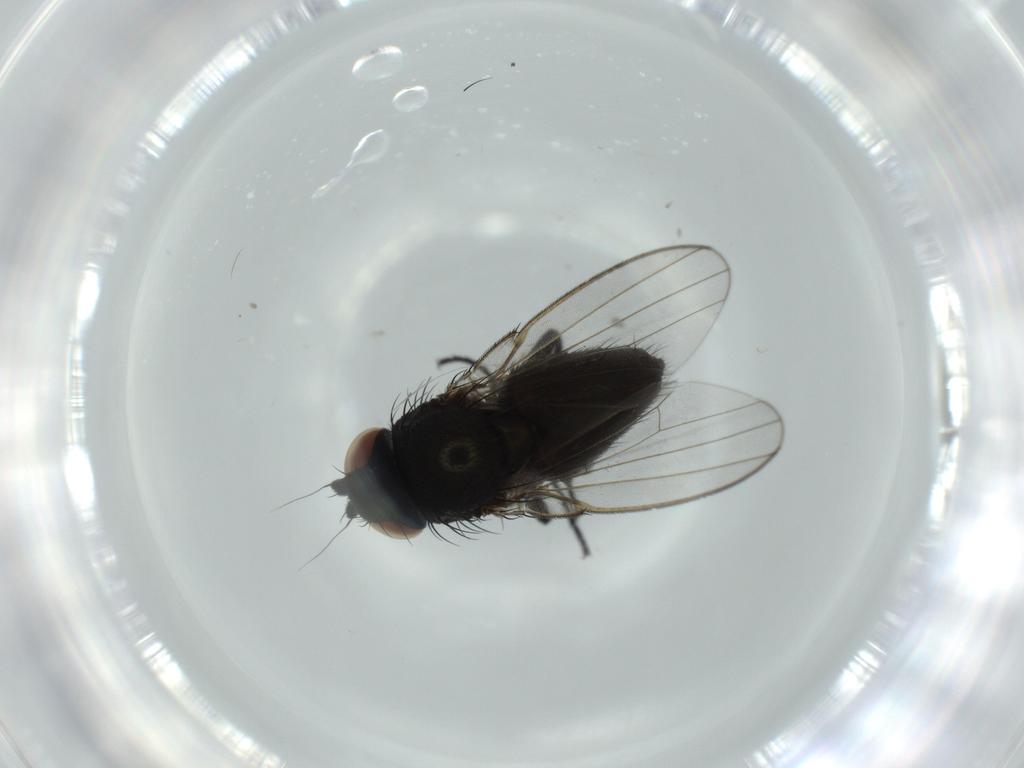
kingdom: Animalia
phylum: Arthropoda
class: Insecta
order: Diptera
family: Milichiidae
